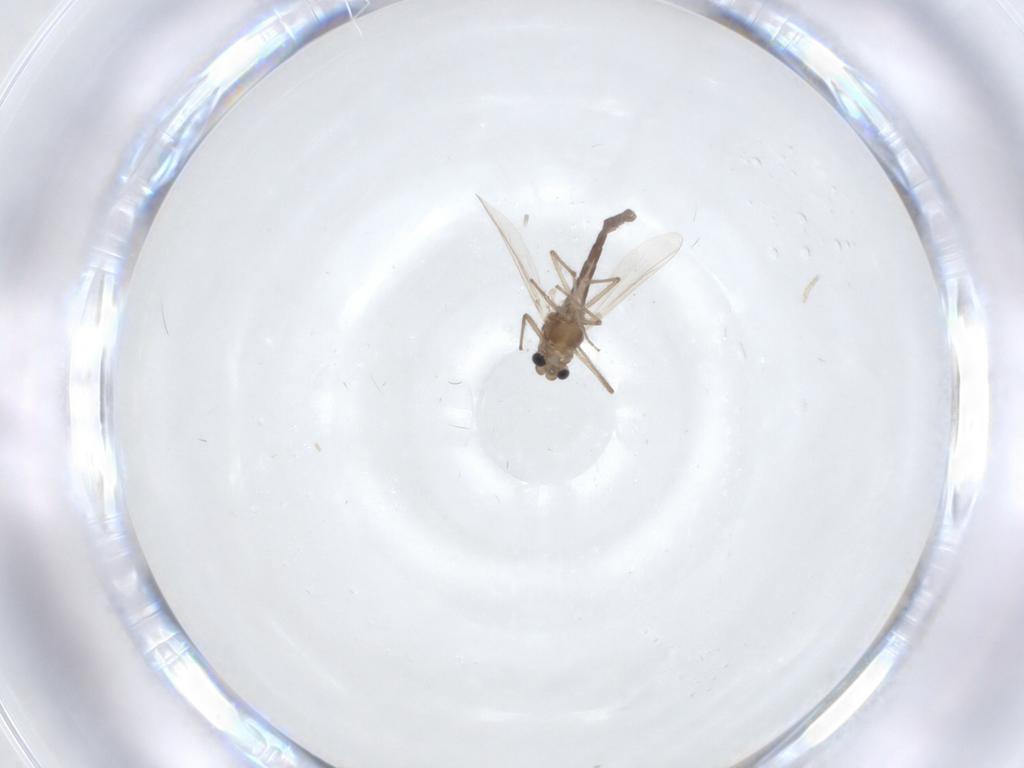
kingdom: Animalia
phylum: Arthropoda
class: Insecta
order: Diptera
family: Chironomidae
